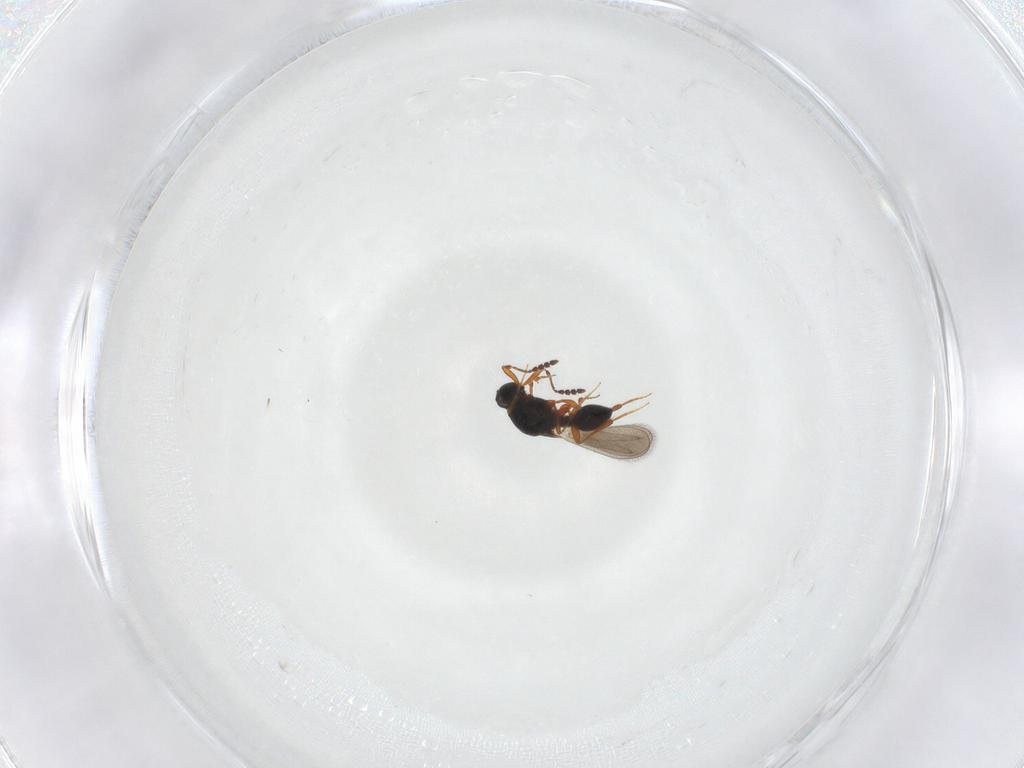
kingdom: Animalia
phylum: Arthropoda
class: Insecta
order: Hymenoptera
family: Platygastridae
